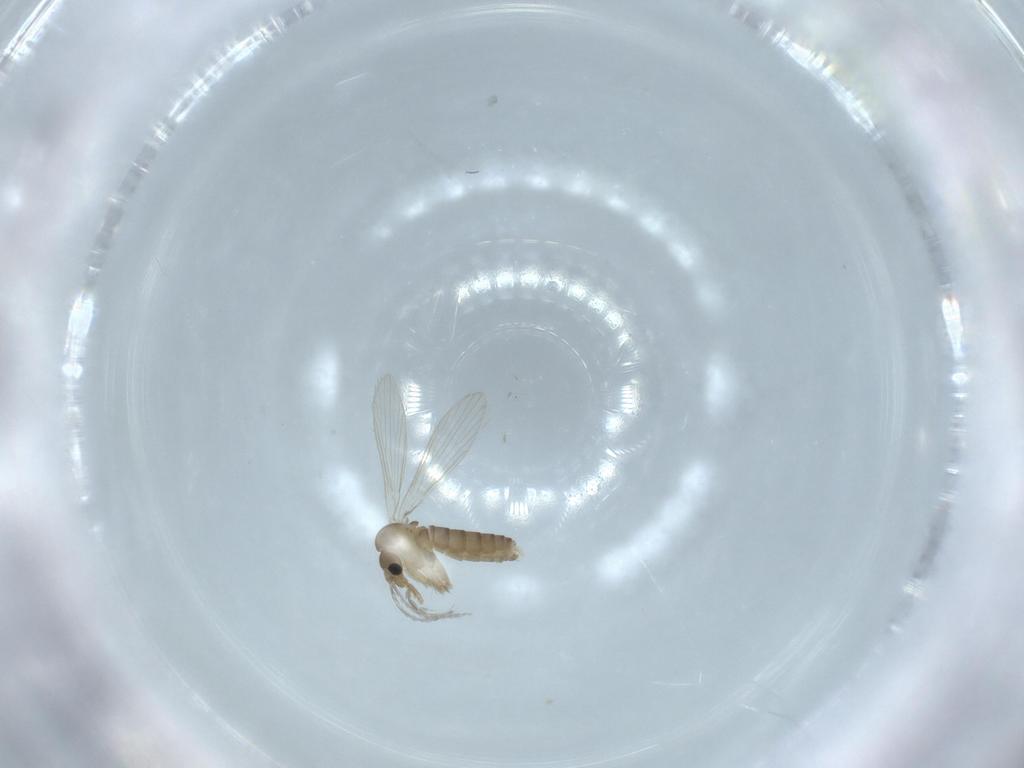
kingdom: Animalia
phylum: Arthropoda
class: Insecta
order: Diptera
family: Psychodidae
